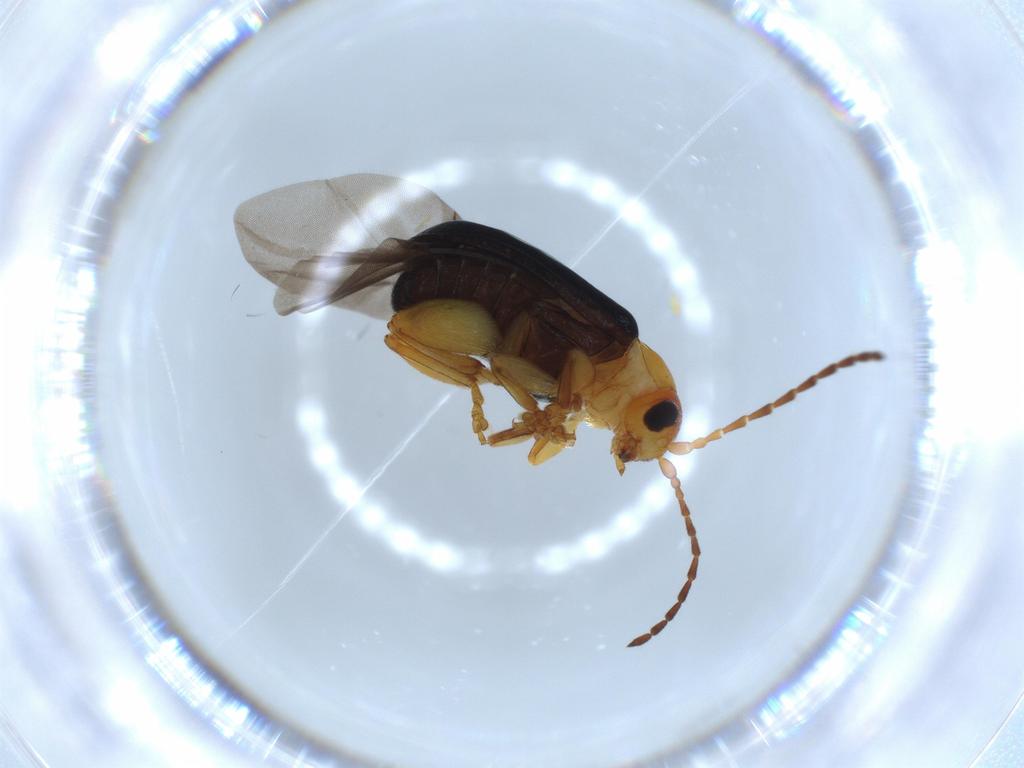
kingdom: Animalia
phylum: Arthropoda
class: Insecta
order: Coleoptera
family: Chrysomelidae
